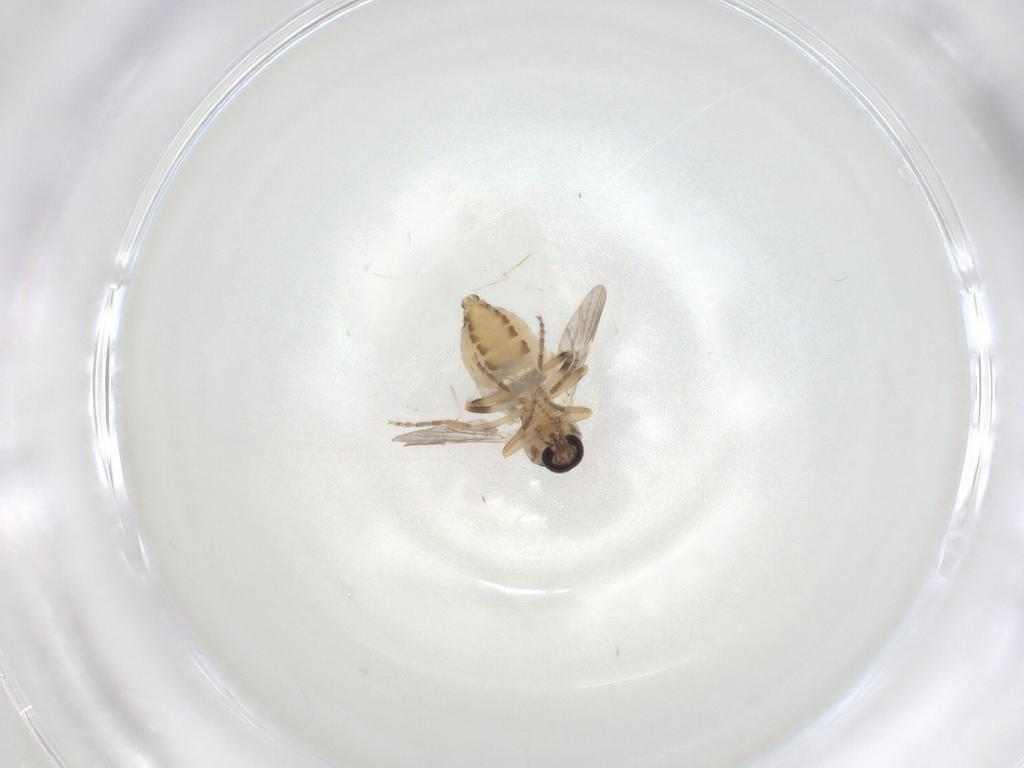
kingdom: Animalia
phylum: Arthropoda
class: Insecta
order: Diptera
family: Ceratopogonidae
